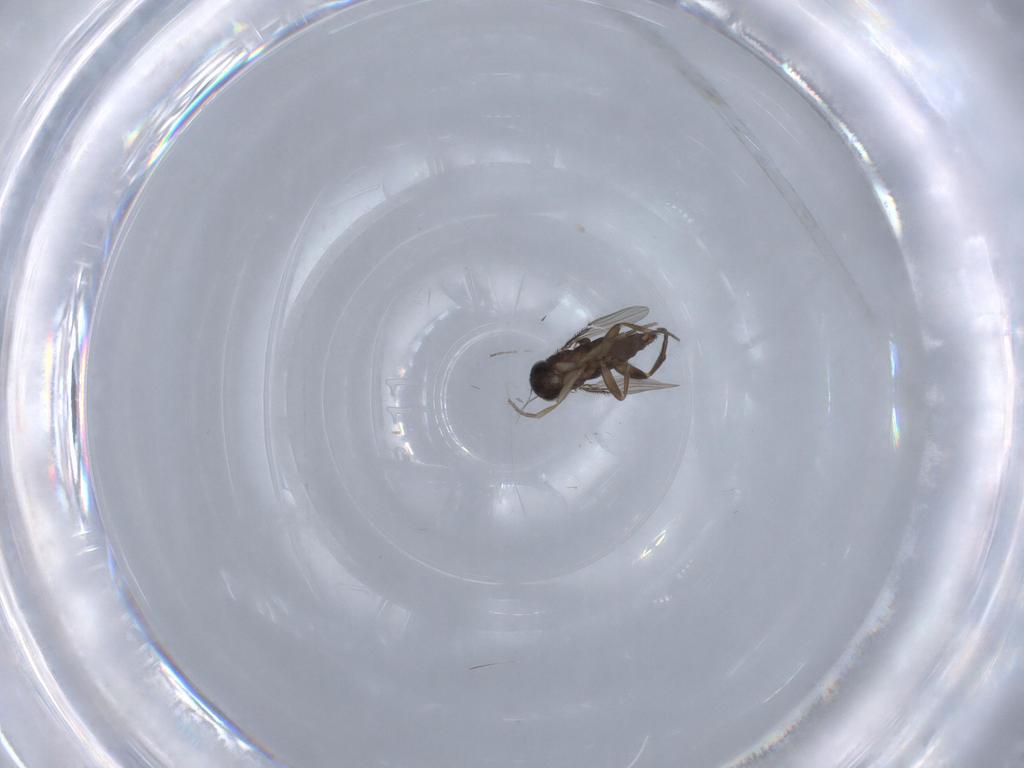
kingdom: Animalia
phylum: Arthropoda
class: Insecta
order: Diptera
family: Phoridae
